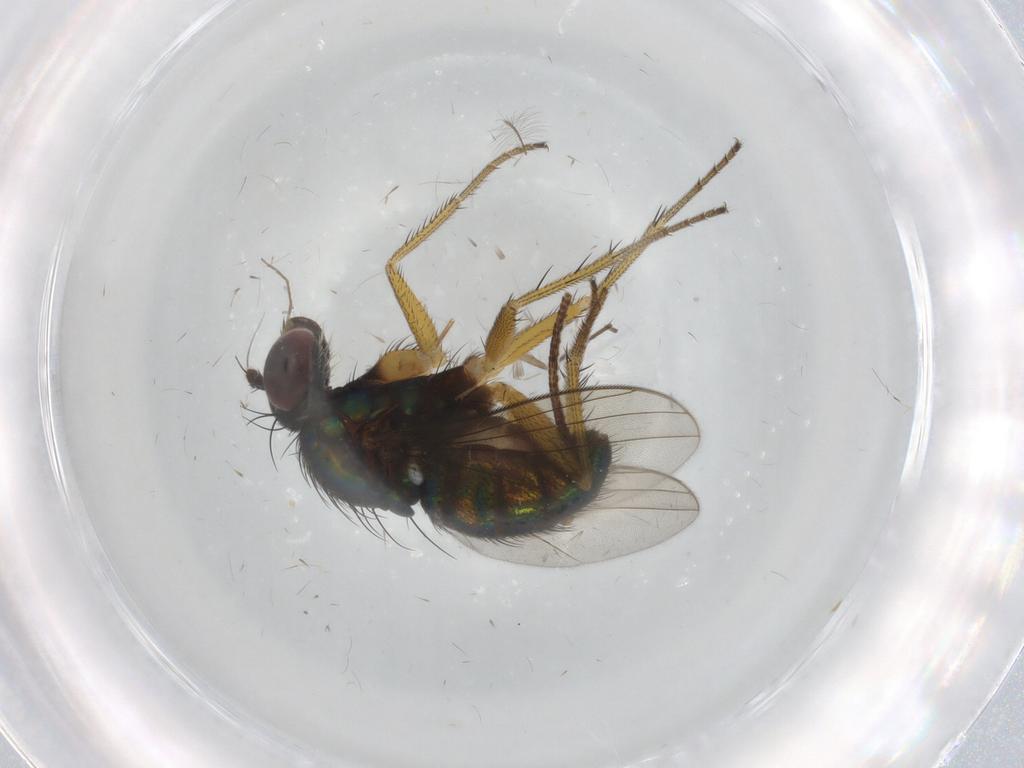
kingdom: Animalia
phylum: Arthropoda
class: Insecta
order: Diptera
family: Dolichopodidae
